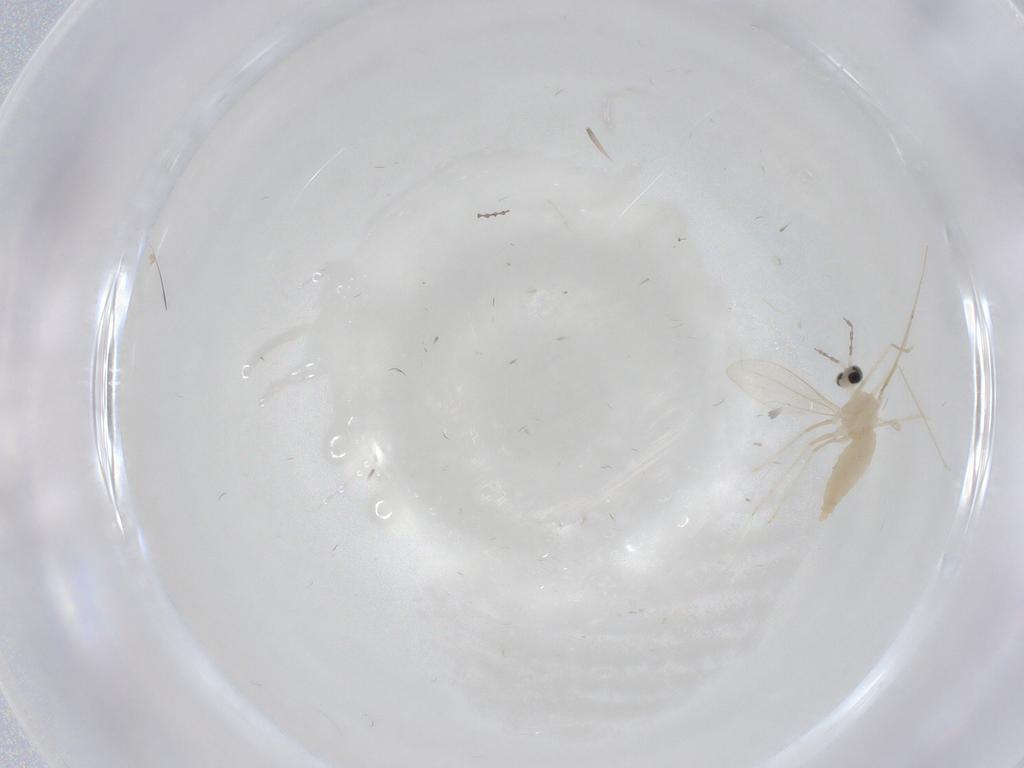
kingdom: Animalia
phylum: Arthropoda
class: Insecta
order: Diptera
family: Cecidomyiidae
